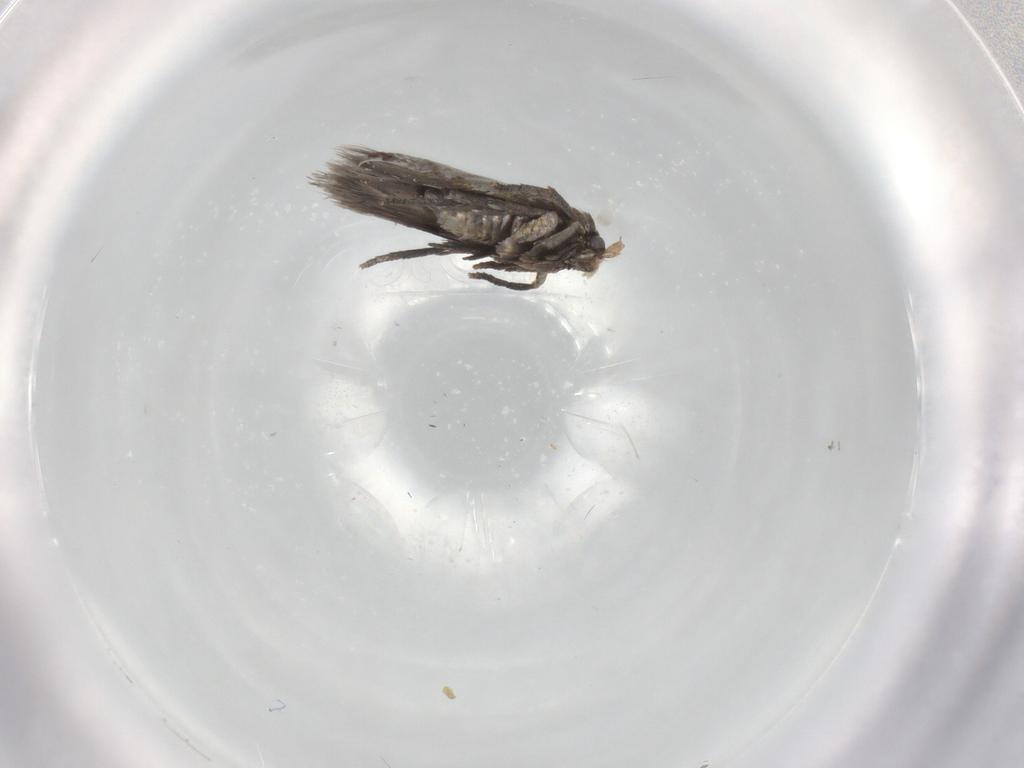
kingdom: Animalia
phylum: Arthropoda
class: Insecta
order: Lepidoptera
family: Nepticulidae
